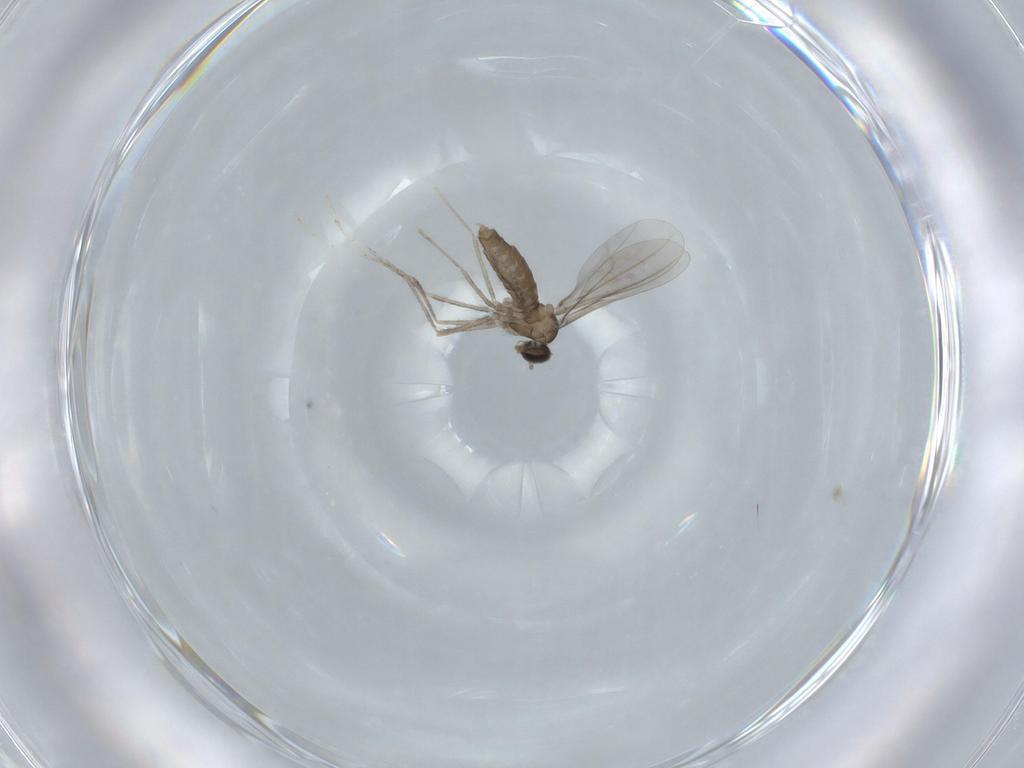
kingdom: Animalia
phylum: Arthropoda
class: Insecta
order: Diptera
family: Cecidomyiidae
